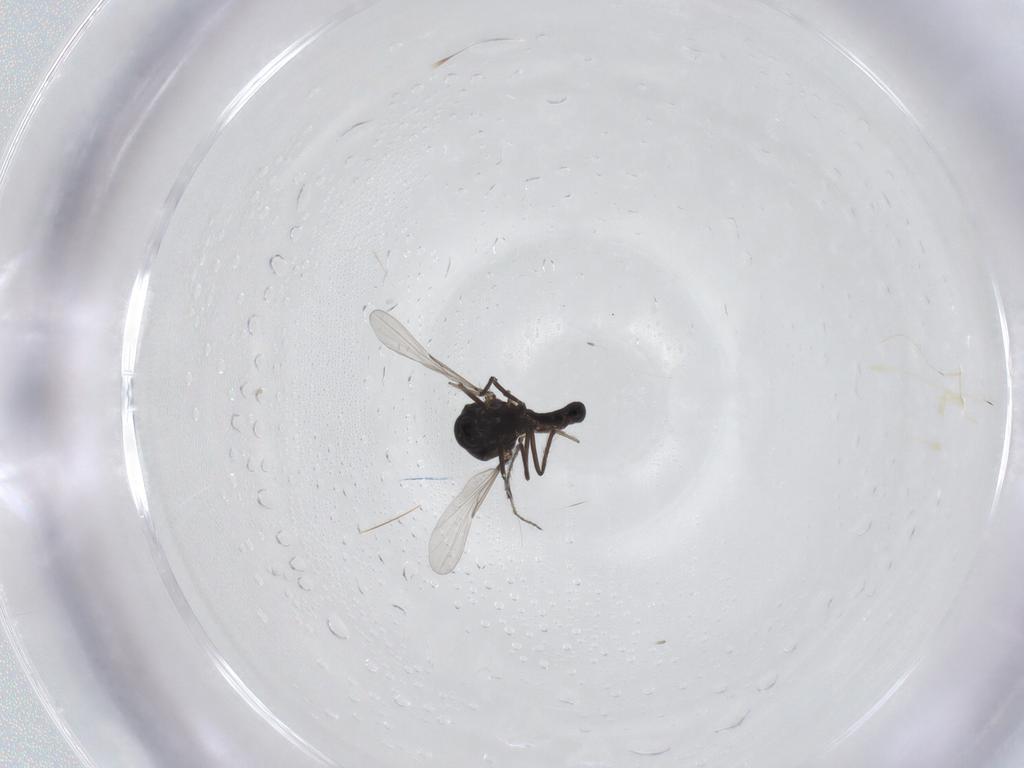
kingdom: Animalia
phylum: Arthropoda
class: Insecta
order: Diptera
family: Ceratopogonidae
